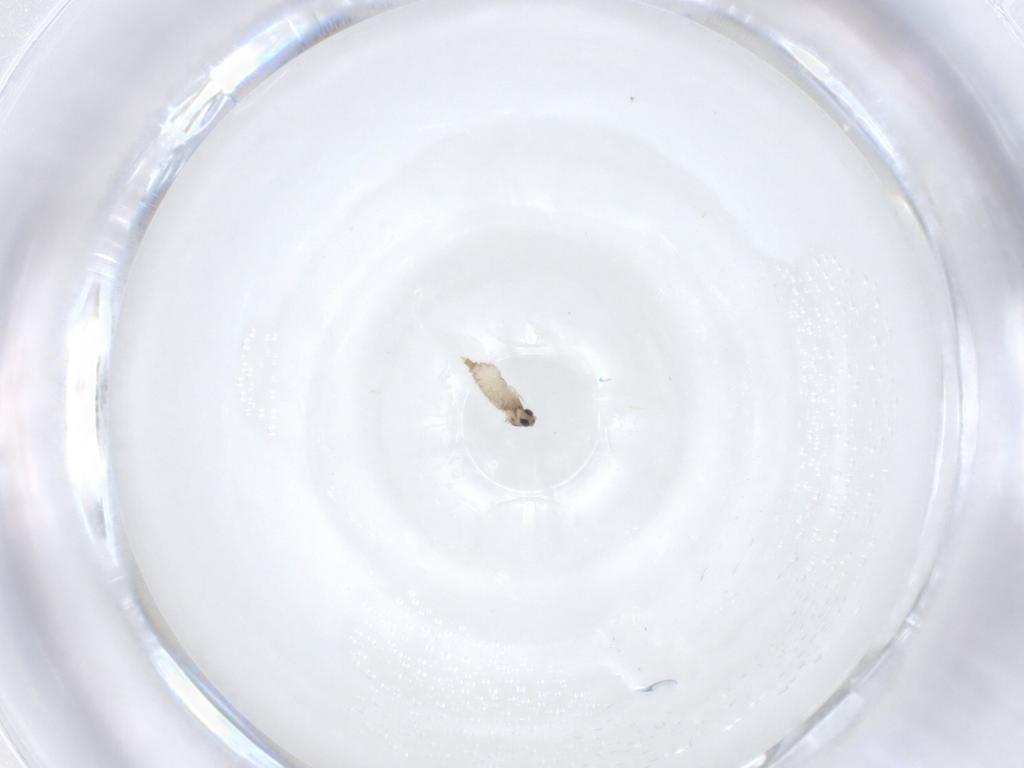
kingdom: Animalia
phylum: Arthropoda
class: Insecta
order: Diptera
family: Cecidomyiidae
